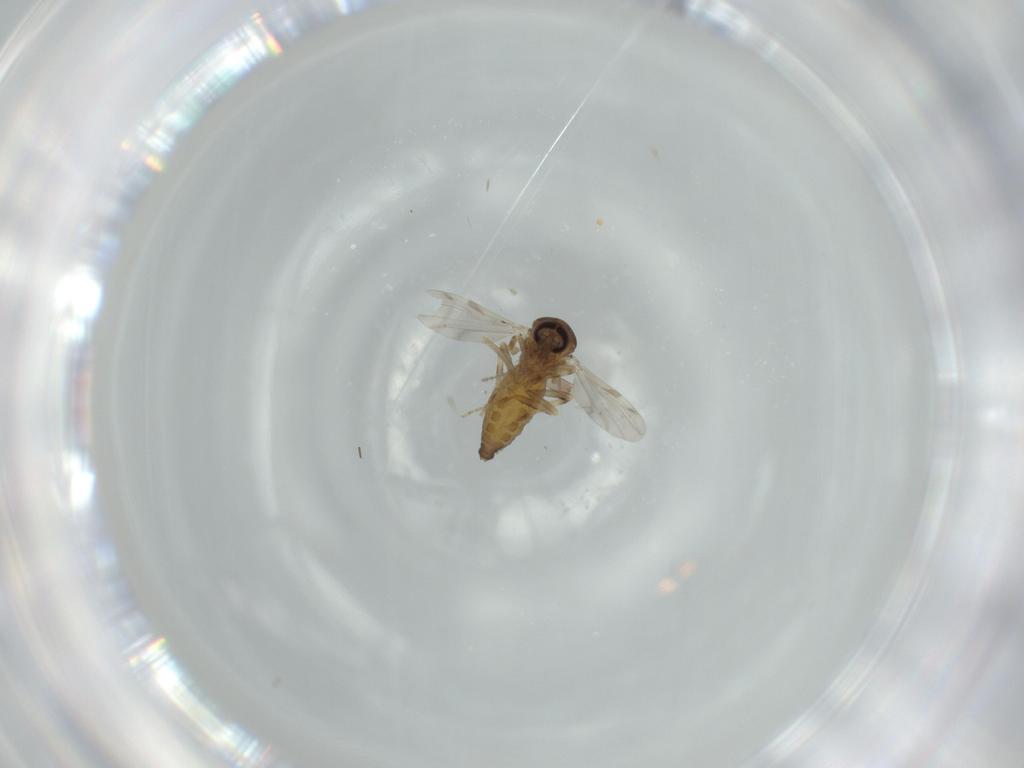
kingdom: Animalia
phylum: Arthropoda
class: Insecta
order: Diptera
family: Ceratopogonidae
